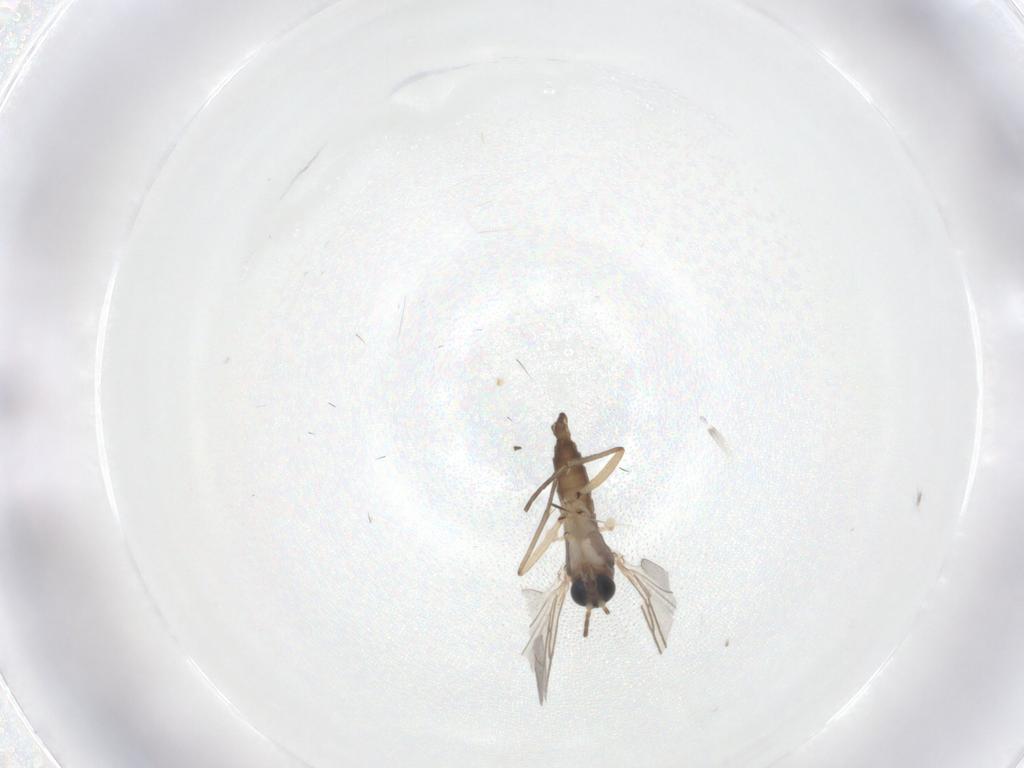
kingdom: Animalia
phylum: Arthropoda
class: Insecta
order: Diptera
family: Sciaridae
